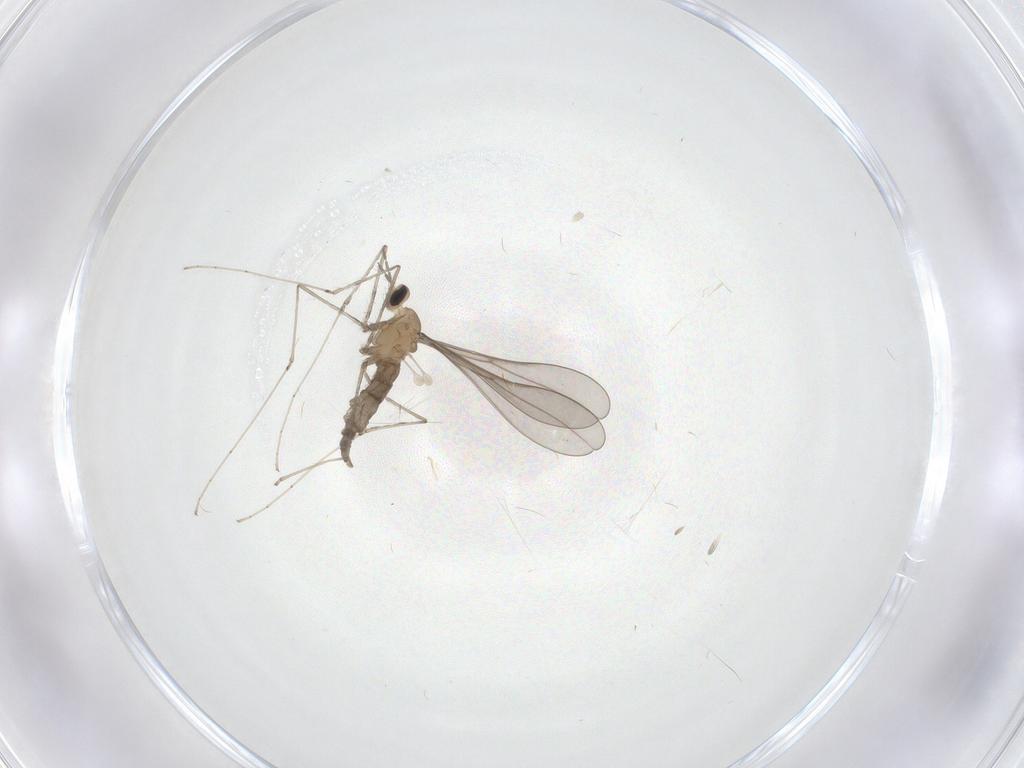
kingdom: Animalia
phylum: Arthropoda
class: Insecta
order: Diptera
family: Cecidomyiidae
